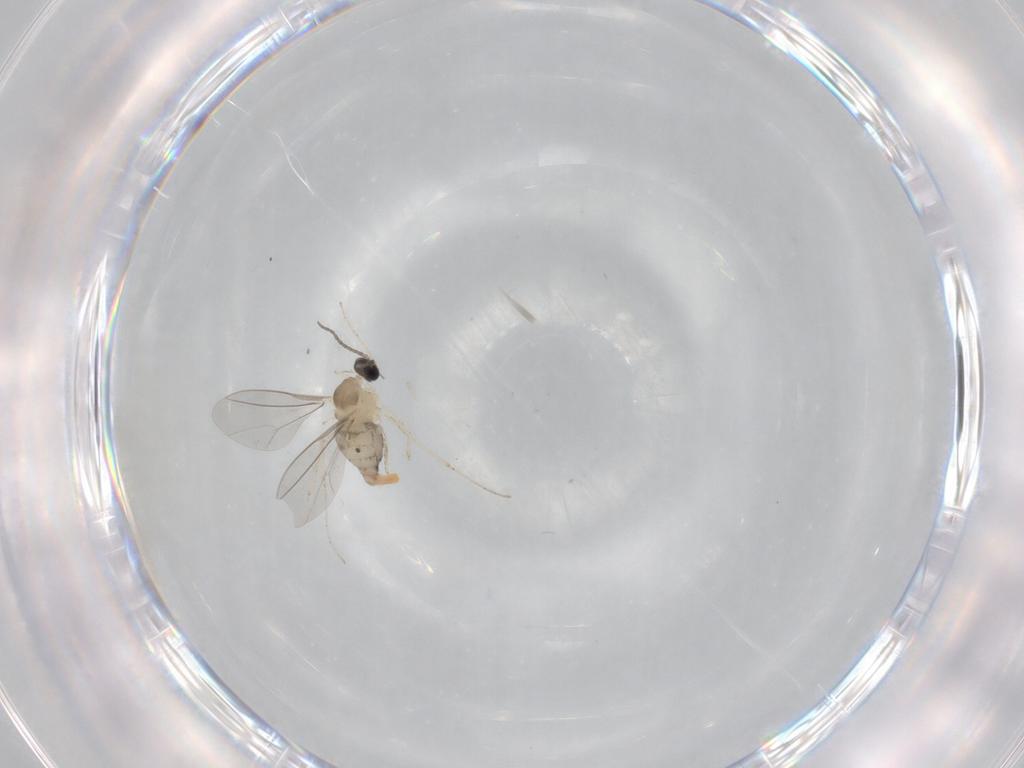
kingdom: Animalia
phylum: Arthropoda
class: Insecta
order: Diptera
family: Cecidomyiidae
